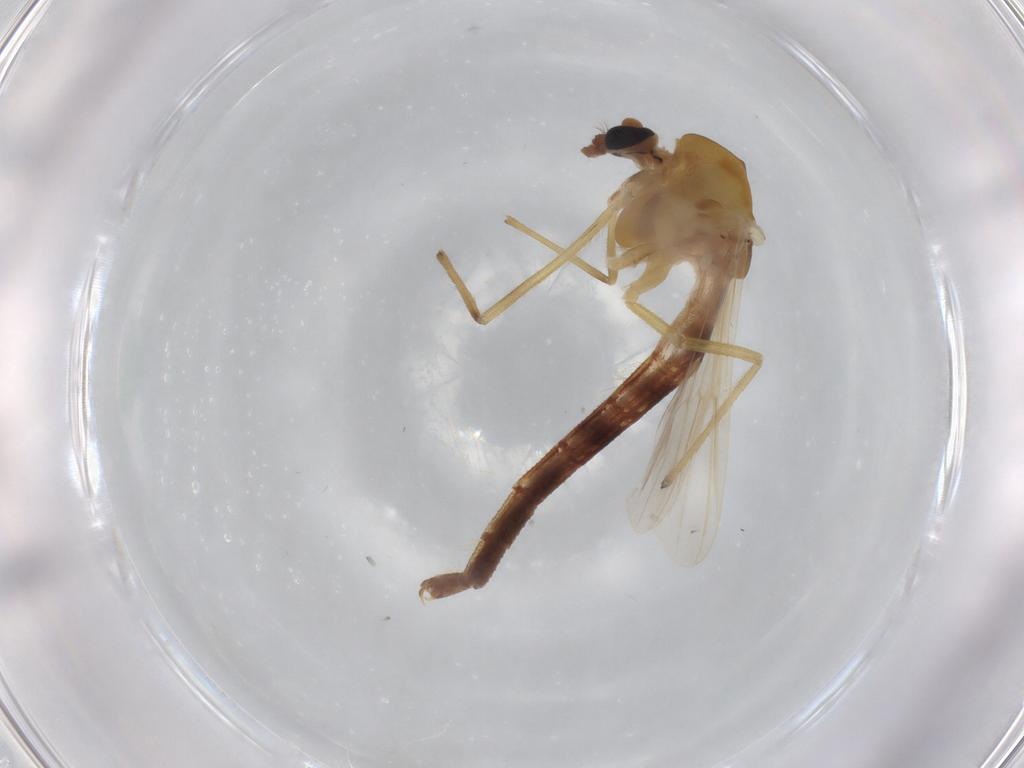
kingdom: Animalia
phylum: Arthropoda
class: Insecta
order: Diptera
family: Chironomidae
